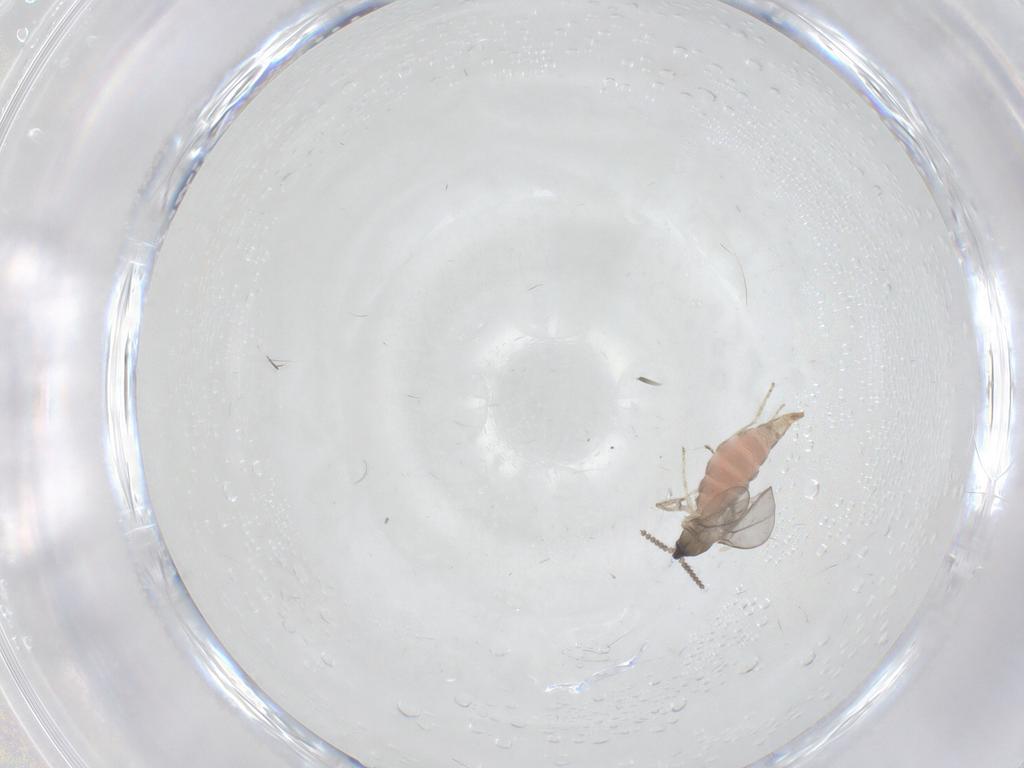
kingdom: Animalia
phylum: Arthropoda
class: Insecta
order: Diptera
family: Cecidomyiidae
